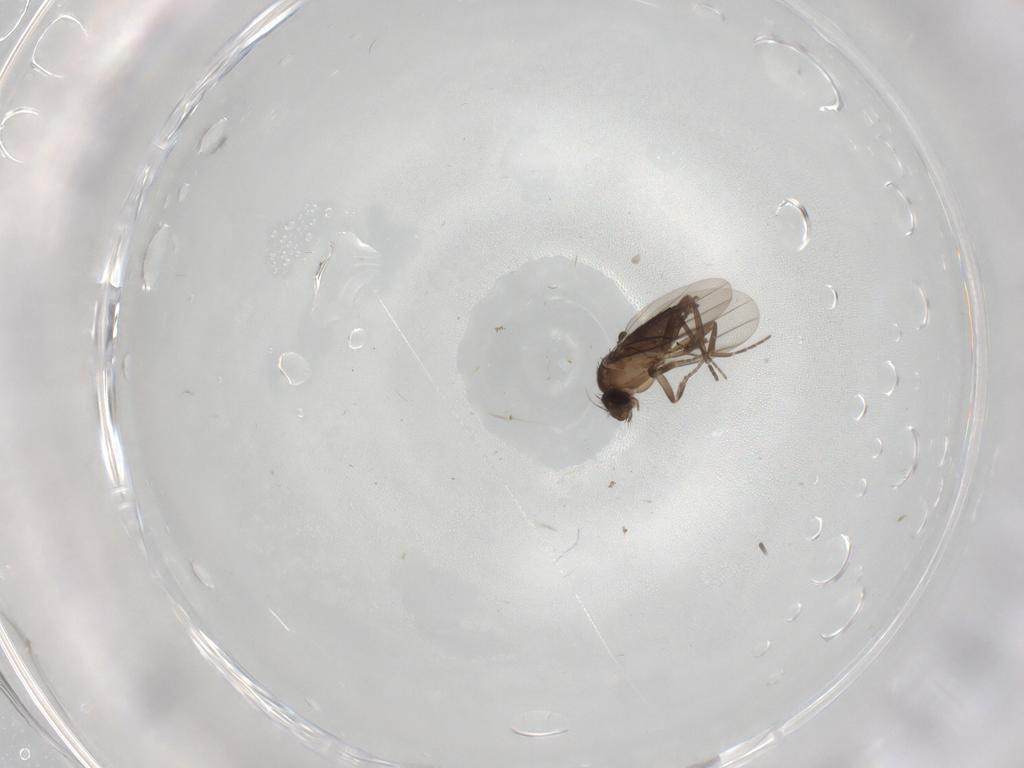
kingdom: Animalia
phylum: Arthropoda
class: Insecta
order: Diptera
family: Phoridae
